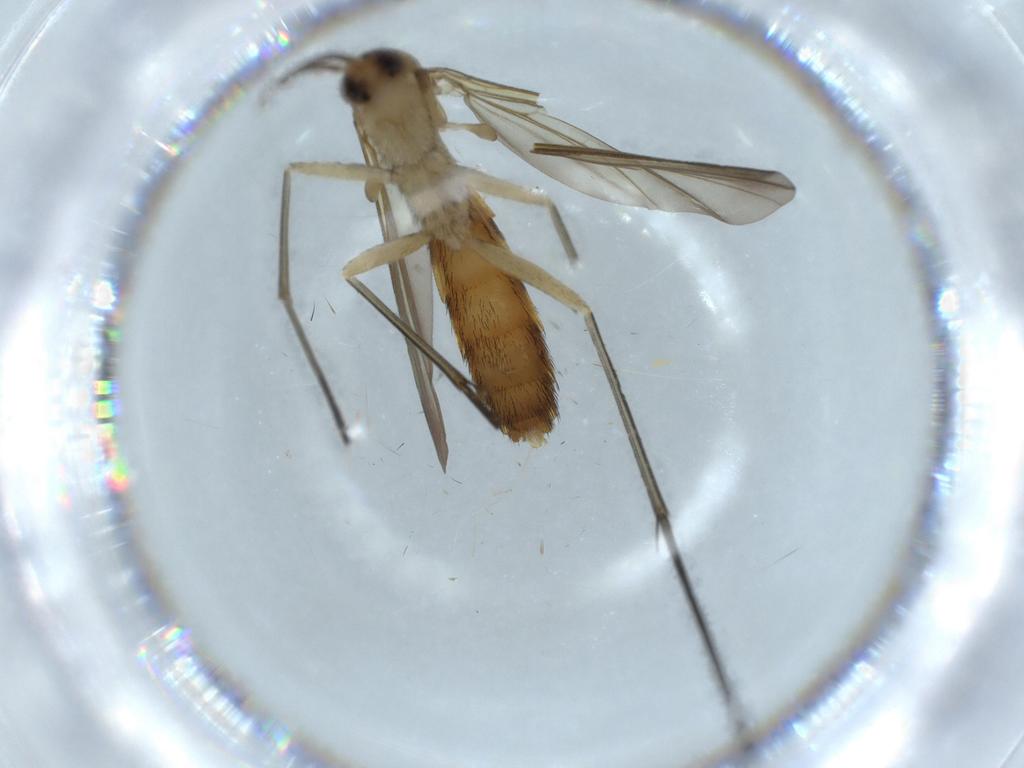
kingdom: Animalia
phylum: Arthropoda
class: Insecta
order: Diptera
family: Keroplatidae
